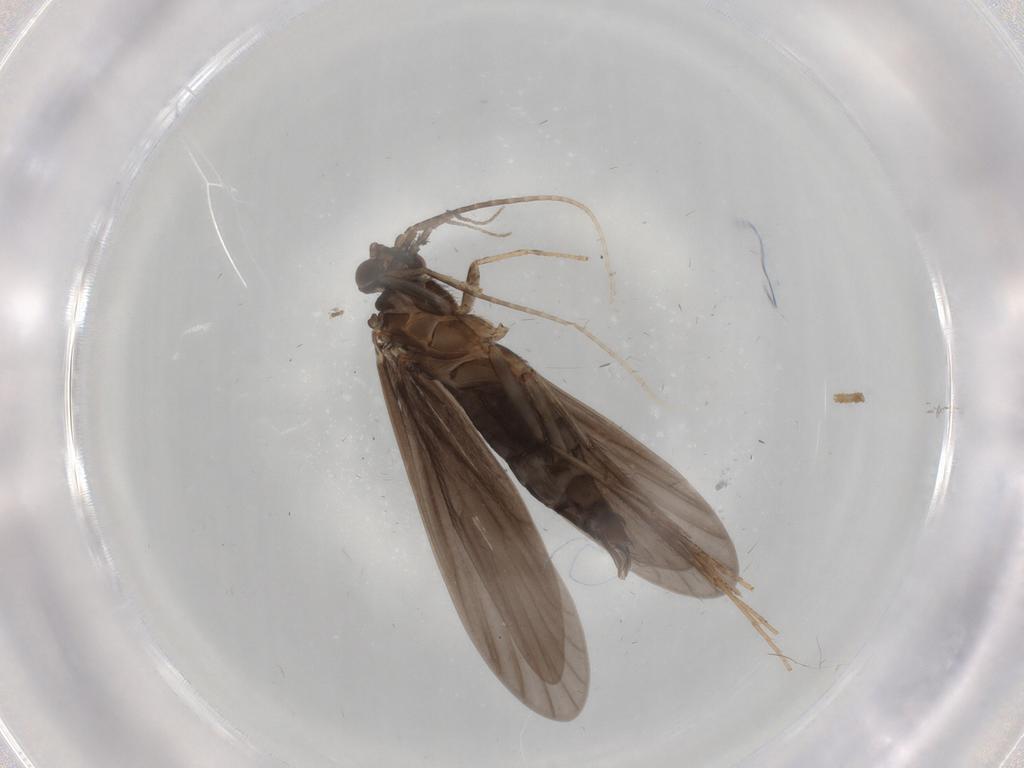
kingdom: Animalia
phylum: Arthropoda
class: Insecta
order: Trichoptera
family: Xiphocentronidae
